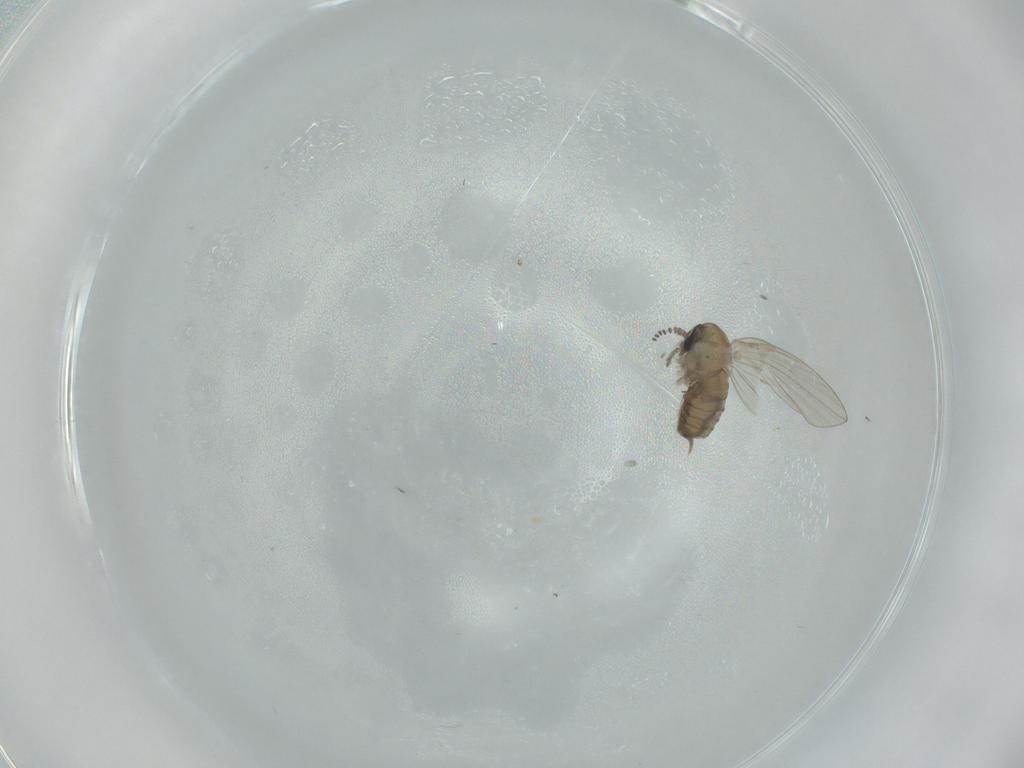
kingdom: Animalia
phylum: Arthropoda
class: Insecta
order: Diptera
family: Psychodidae
